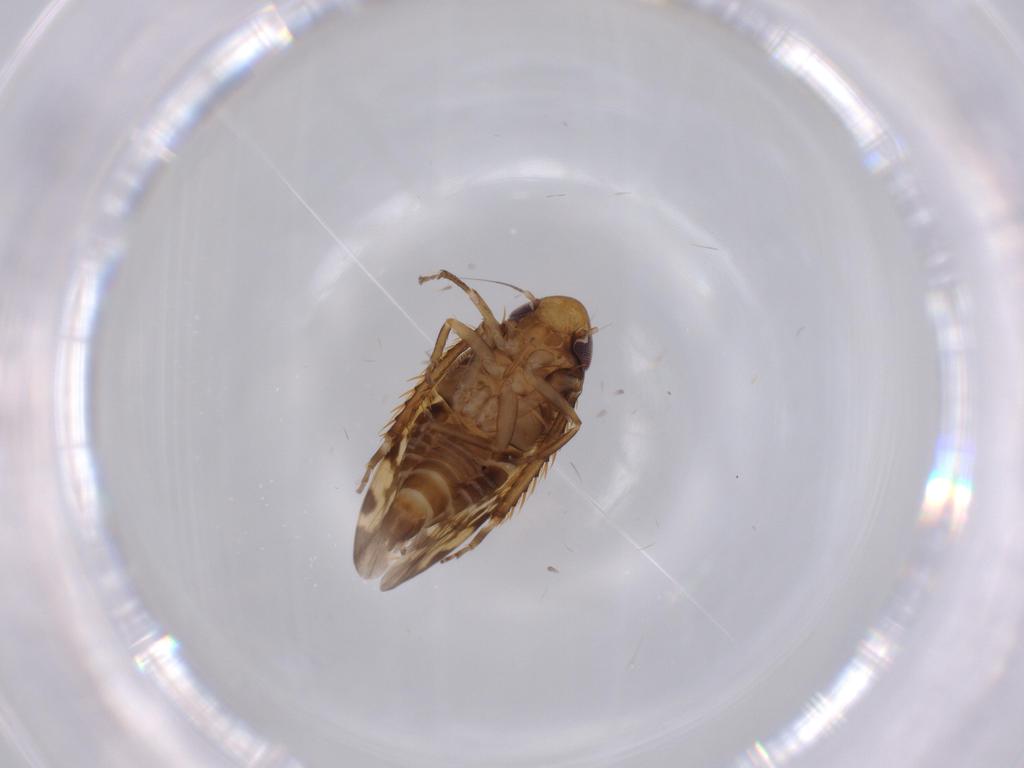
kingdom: Animalia
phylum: Arthropoda
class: Insecta
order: Hemiptera
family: Cicadellidae
